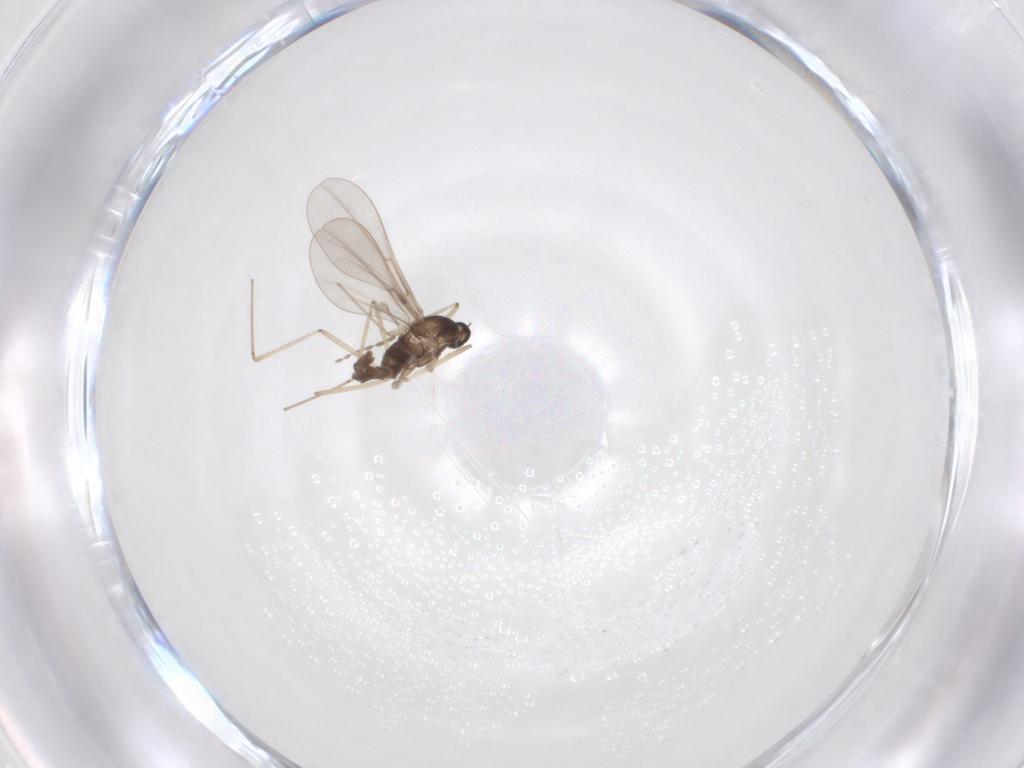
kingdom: Animalia
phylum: Arthropoda
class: Insecta
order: Diptera
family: Cecidomyiidae
